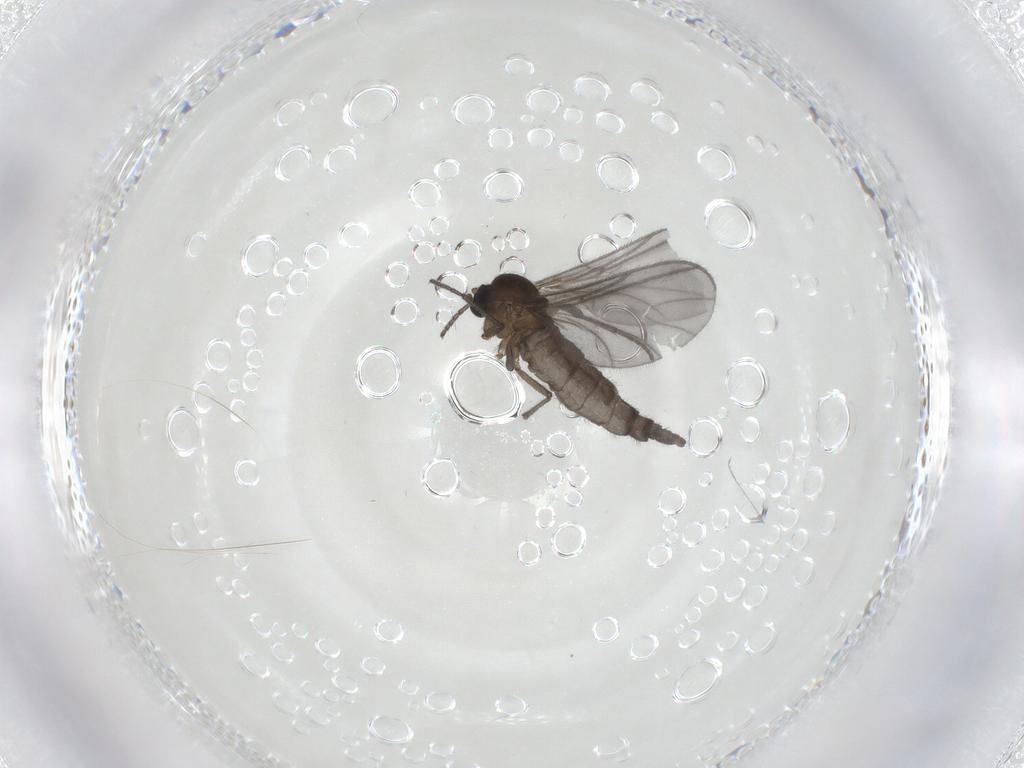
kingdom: Animalia
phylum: Arthropoda
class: Insecta
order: Diptera
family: Sciaridae
